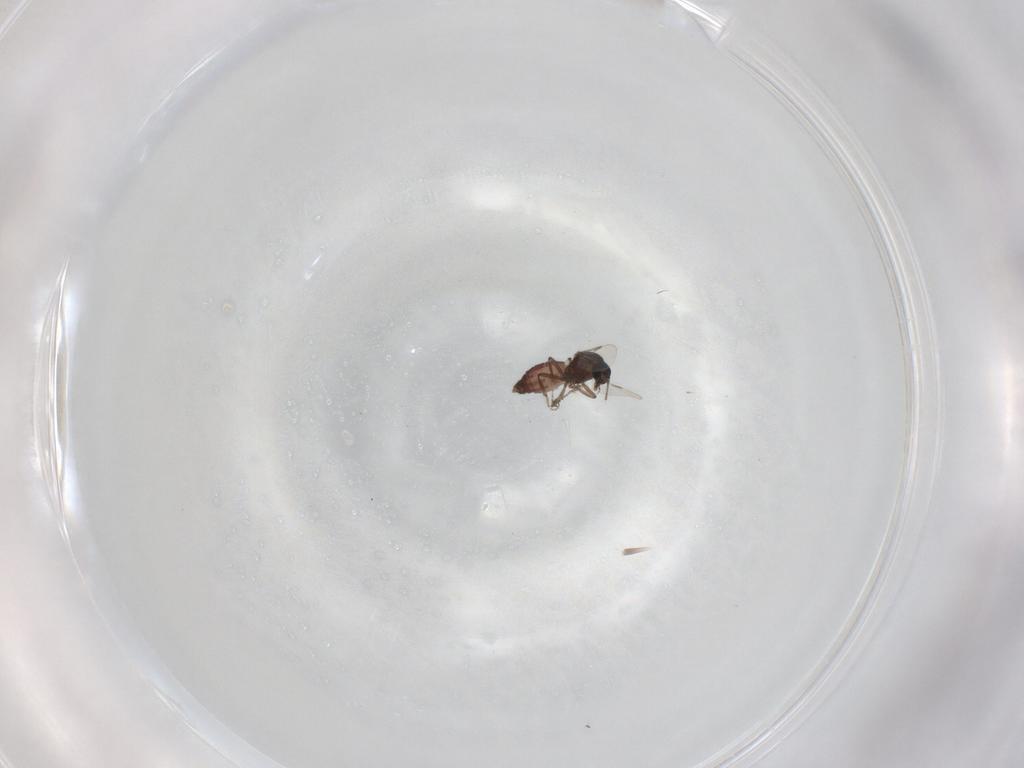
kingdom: Animalia
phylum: Arthropoda
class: Insecta
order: Diptera
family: Ceratopogonidae
